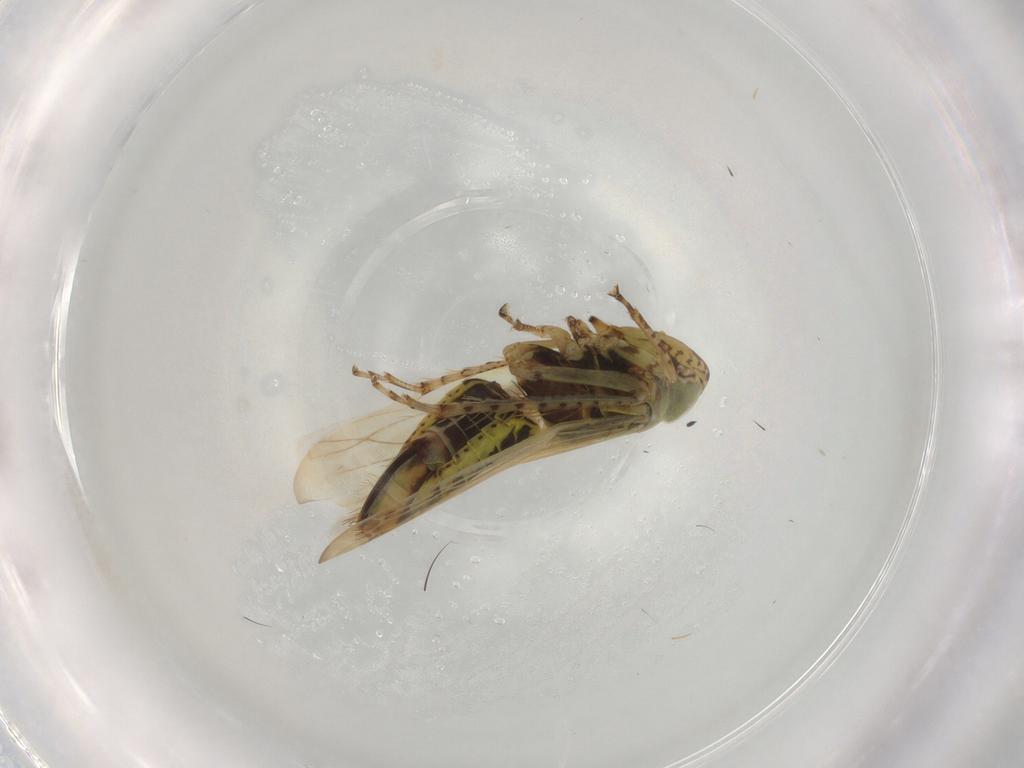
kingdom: Animalia
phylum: Arthropoda
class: Insecta
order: Hemiptera
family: Cicadellidae
